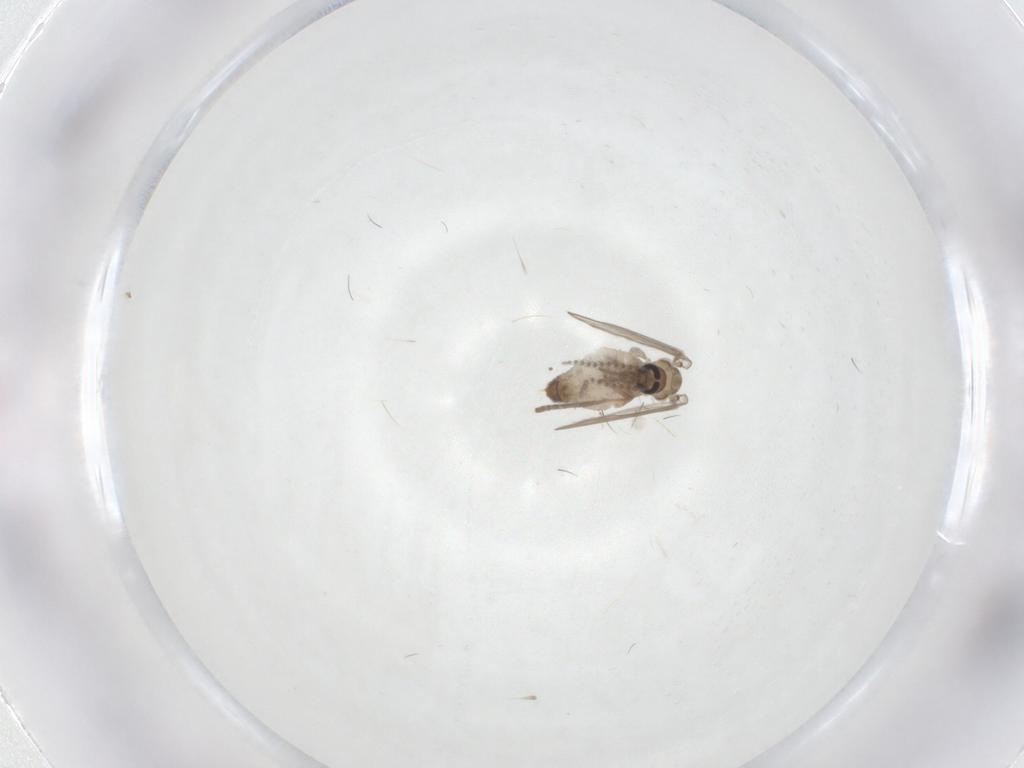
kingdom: Animalia
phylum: Arthropoda
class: Insecta
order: Diptera
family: Psychodidae
